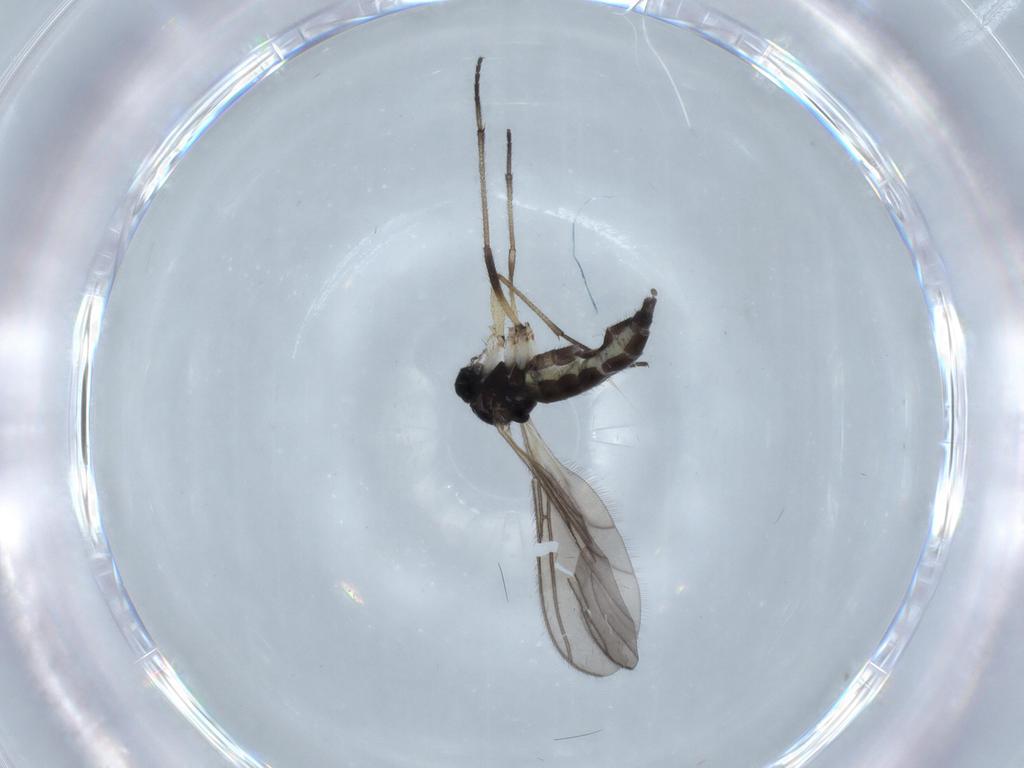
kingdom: Animalia
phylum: Arthropoda
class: Insecta
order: Diptera
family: Sciaridae
